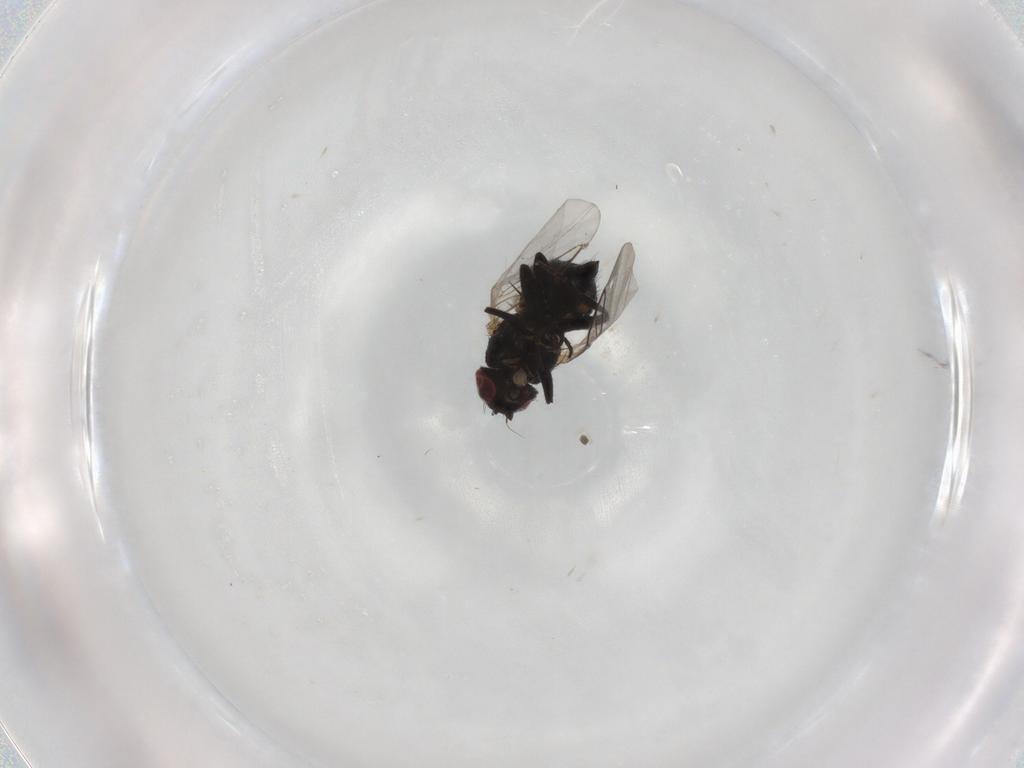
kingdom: Animalia
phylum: Arthropoda
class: Insecta
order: Diptera
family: Agromyzidae
